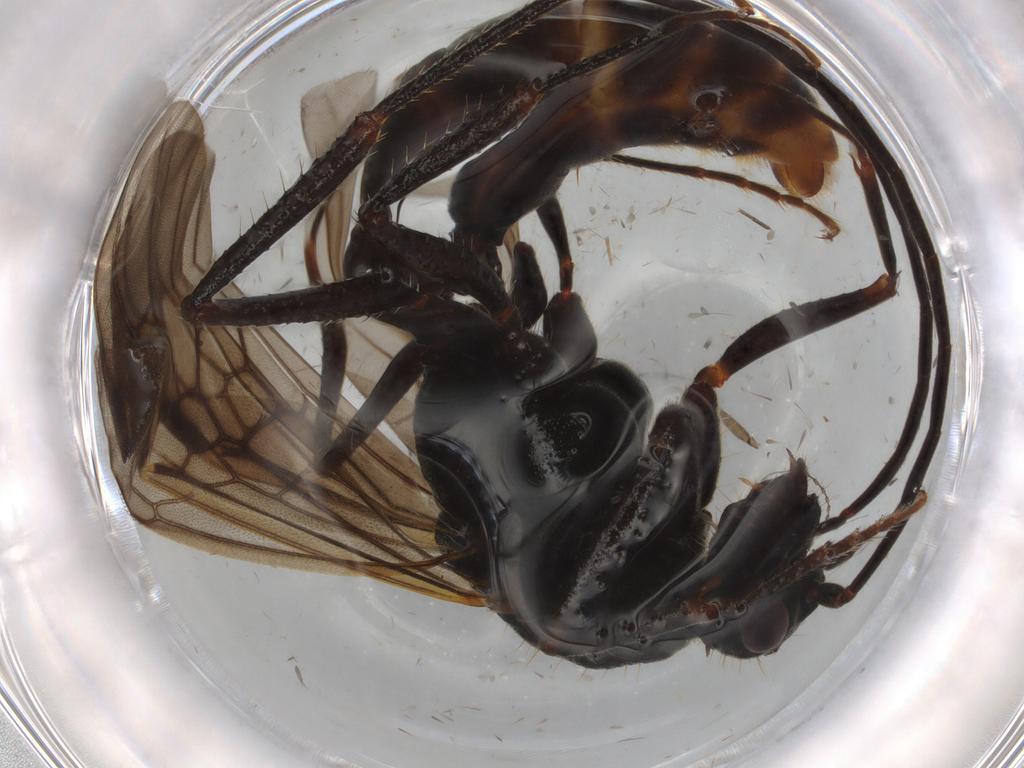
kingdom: Animalia
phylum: Arthropoda
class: Insecta
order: Hymenoptera
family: Formicidae
